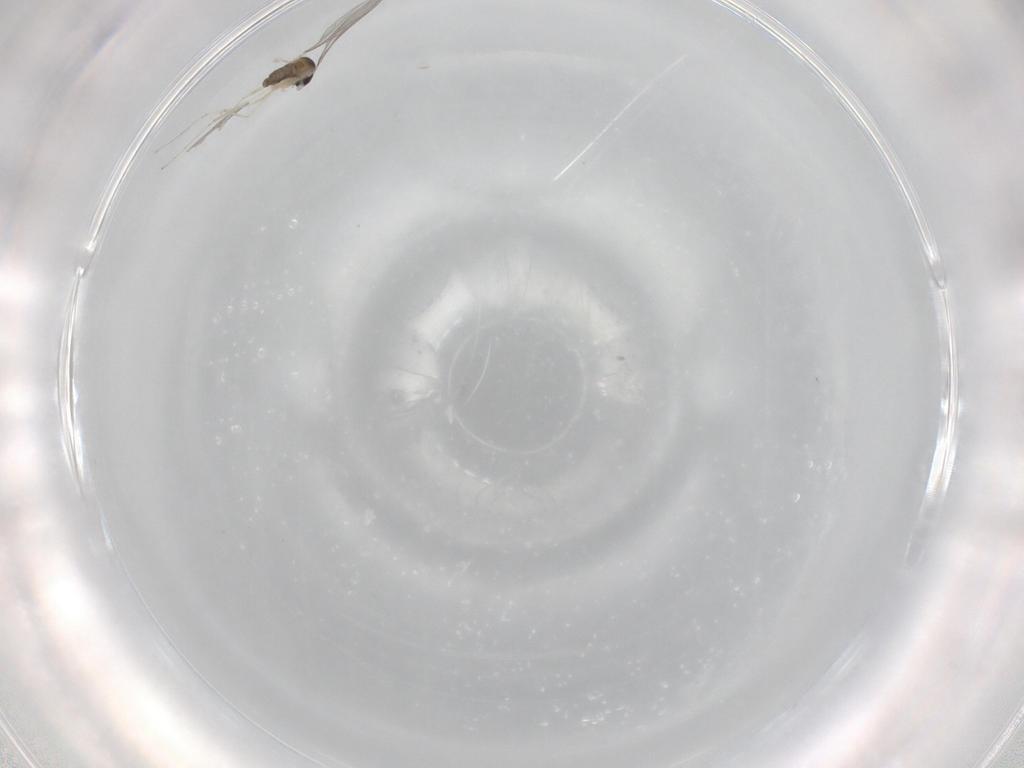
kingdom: Animalia
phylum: Arthropoda
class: Insecta
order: Diptera
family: Cecidomyiidae
